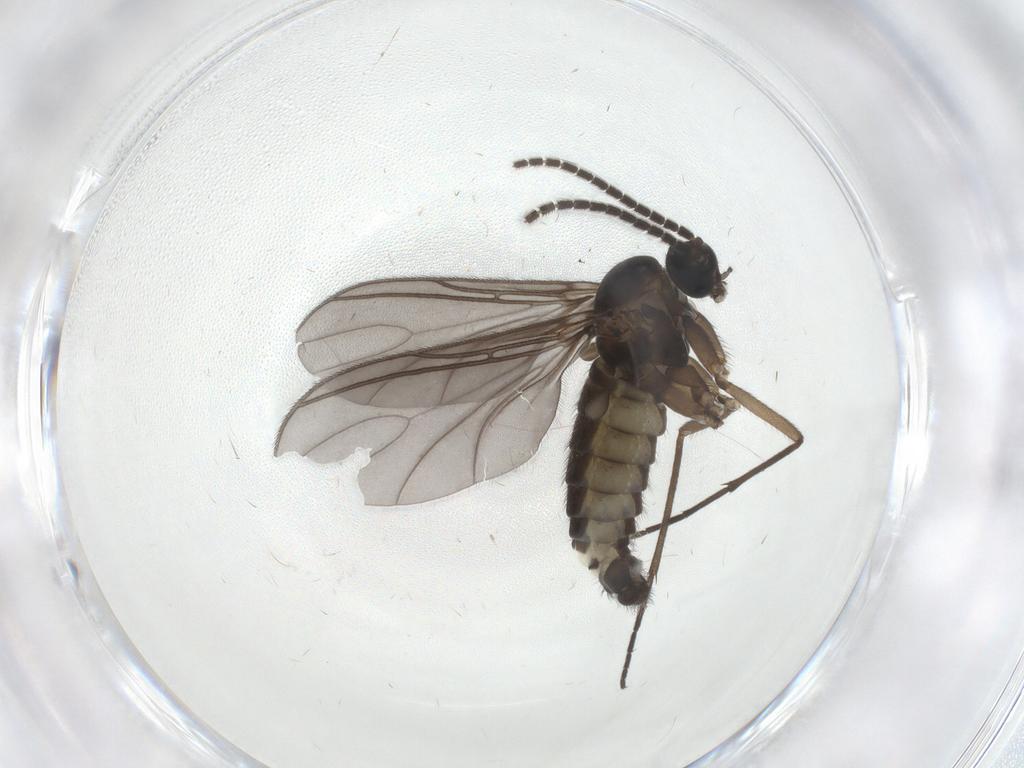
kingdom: Animalia
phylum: Arthropoda
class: Insecta
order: Diptera
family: Sciaridae
